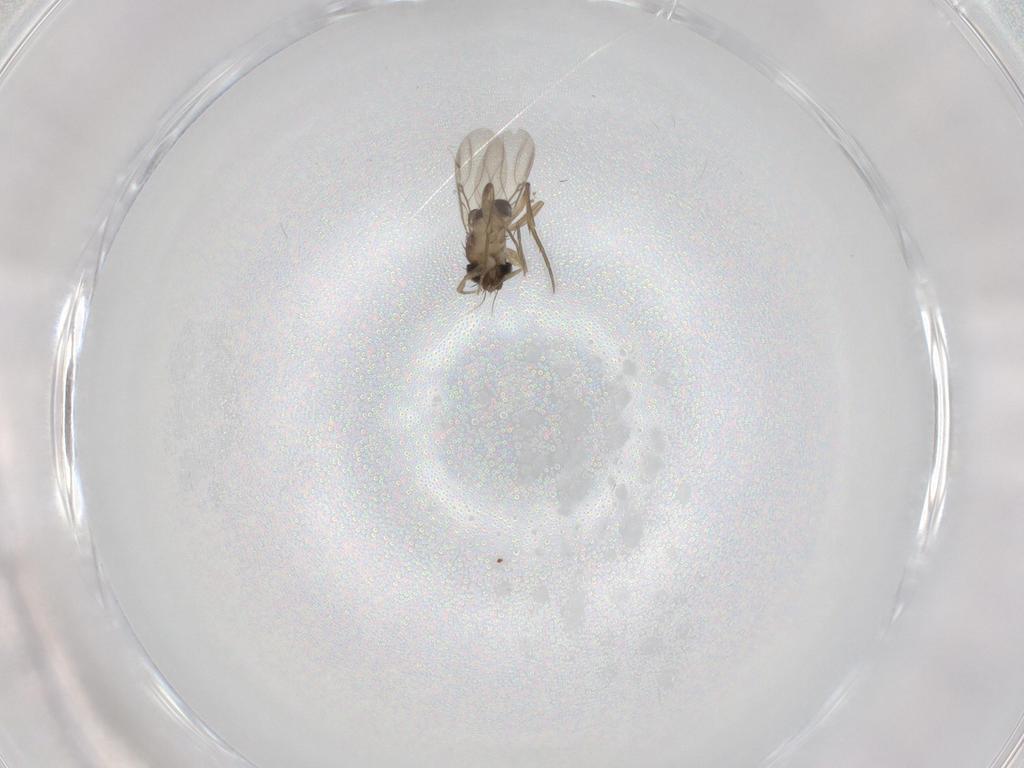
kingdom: Animalia
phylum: Arthropoda
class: Insecta
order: Diptera
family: Phoridae
